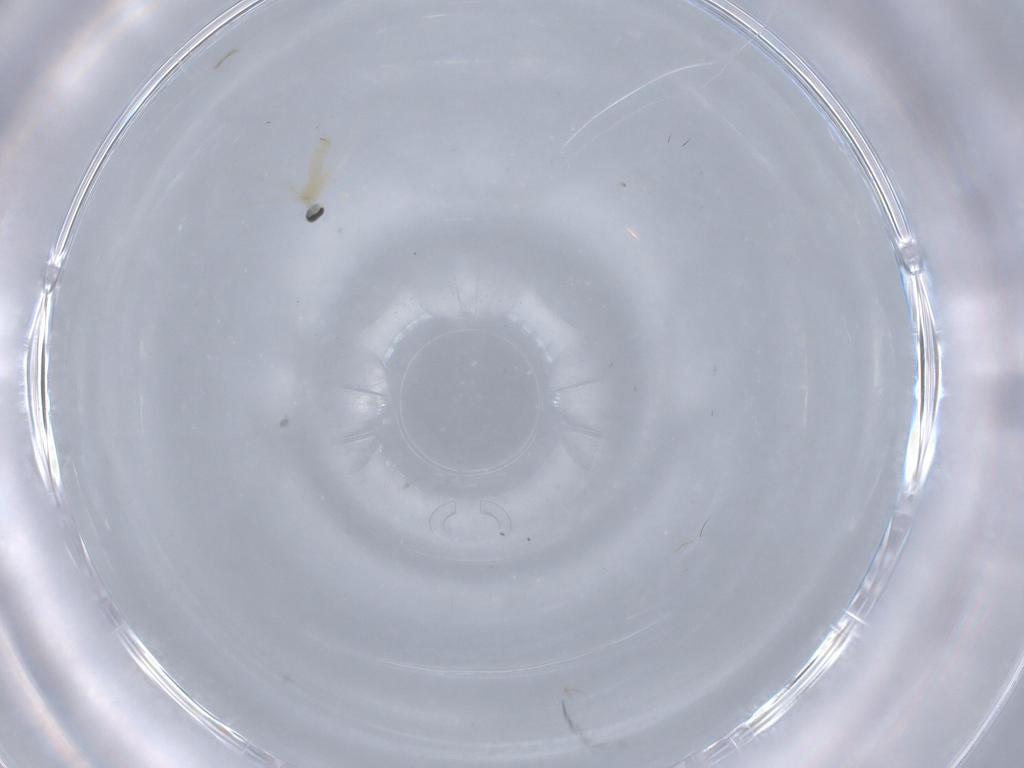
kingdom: Animalia
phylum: Arthropoda
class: Insecta
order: Diptera
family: Cecidomyiidae
